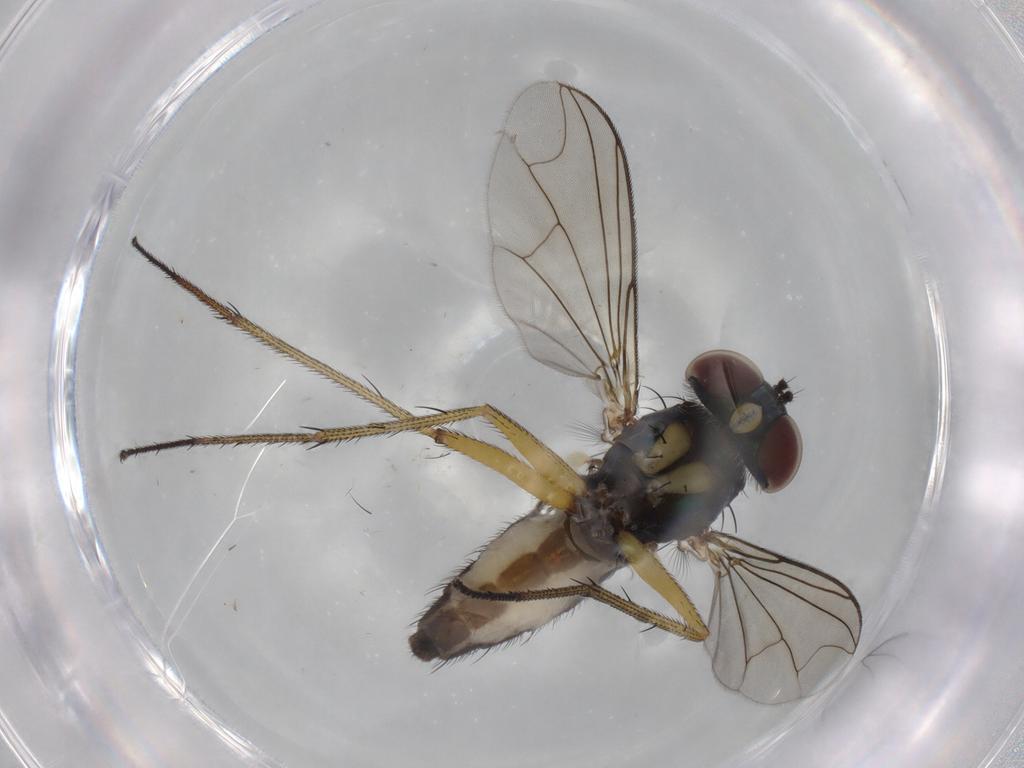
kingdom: Animalia
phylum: Arthropoda
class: Insecta
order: Diptera
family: Dolichopodidae
